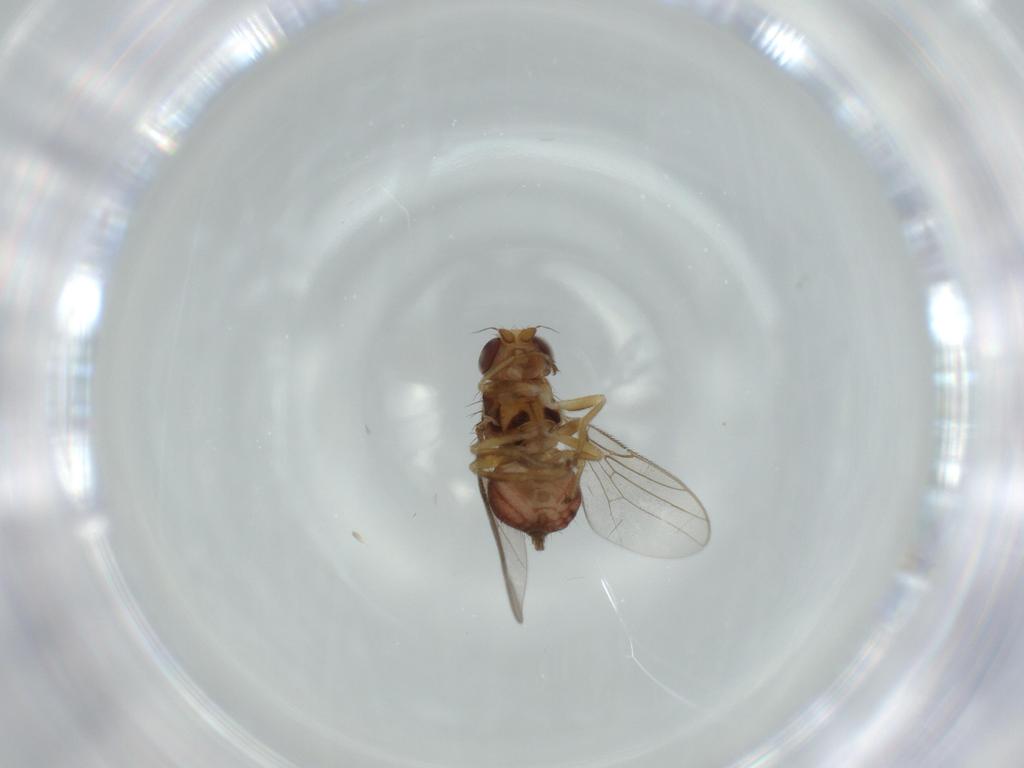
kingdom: Animalia
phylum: Arthropoda
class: Insecta
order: Diptera
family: Chloropidae
